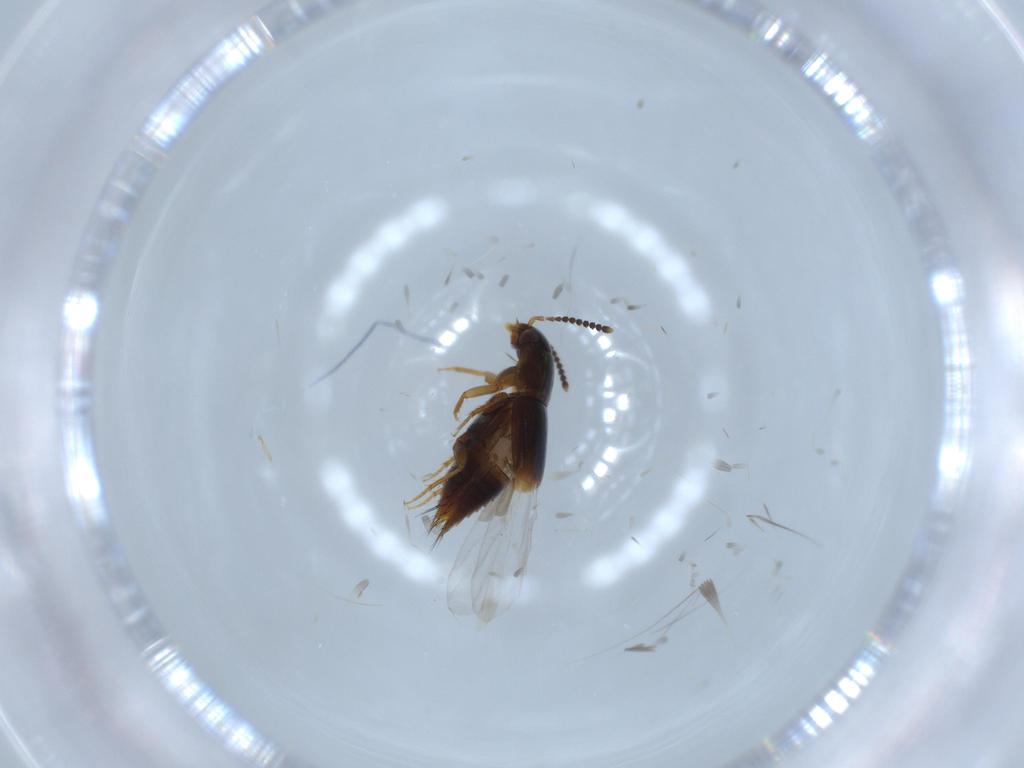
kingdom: Animalia
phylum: Arthropoda
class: Insecta
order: Coleoptera
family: Staphylinidae
